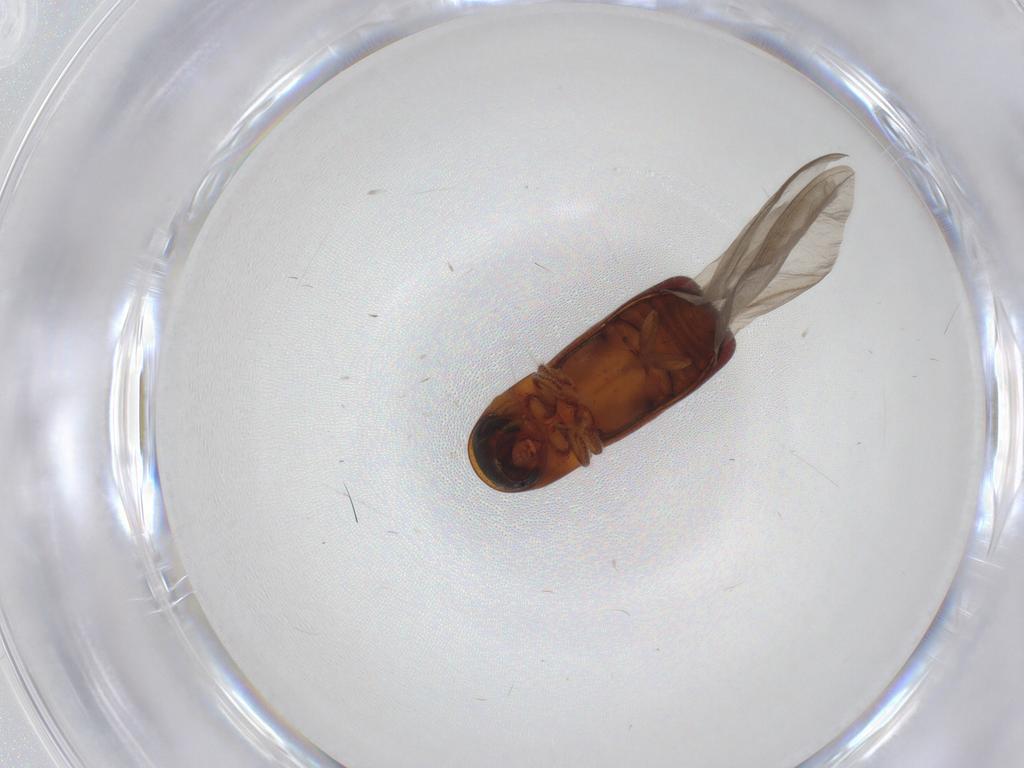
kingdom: Animalia
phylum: Arthropoda
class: Insecta
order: Coleoptera
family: Curculionidae
